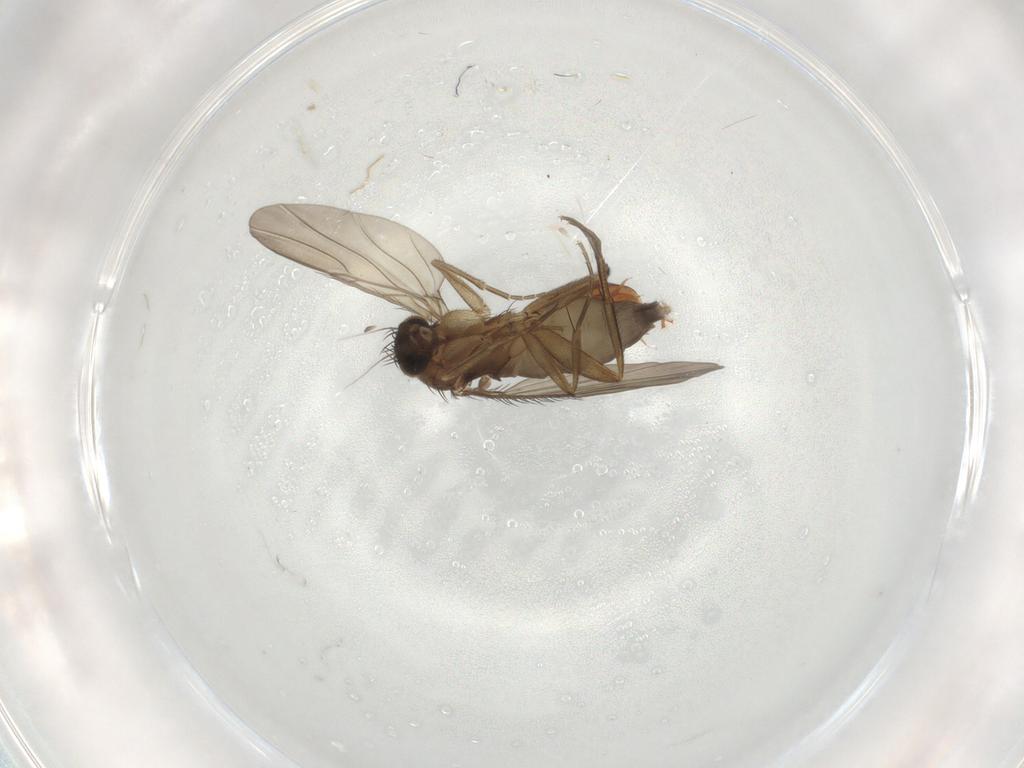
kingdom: Animalia
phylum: Arthropoda
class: Insecta
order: Diptera
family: Phoridae
